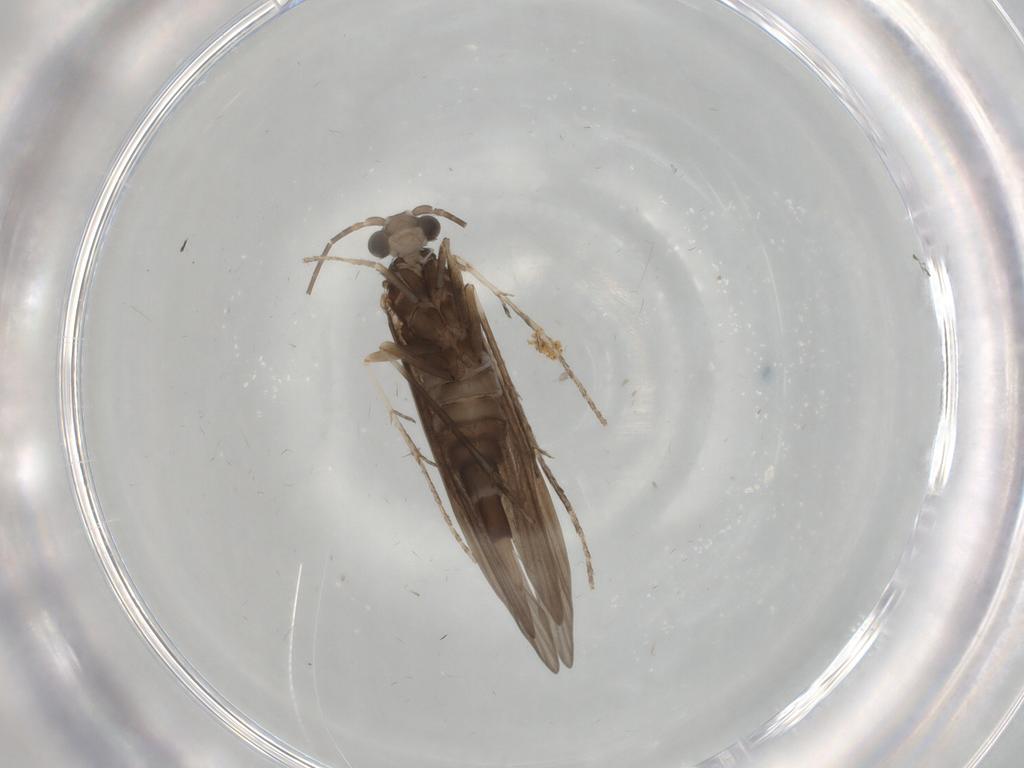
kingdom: Animalia
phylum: Arthropoda
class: Insecta
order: Trichoptera
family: Xiphocentronidae
